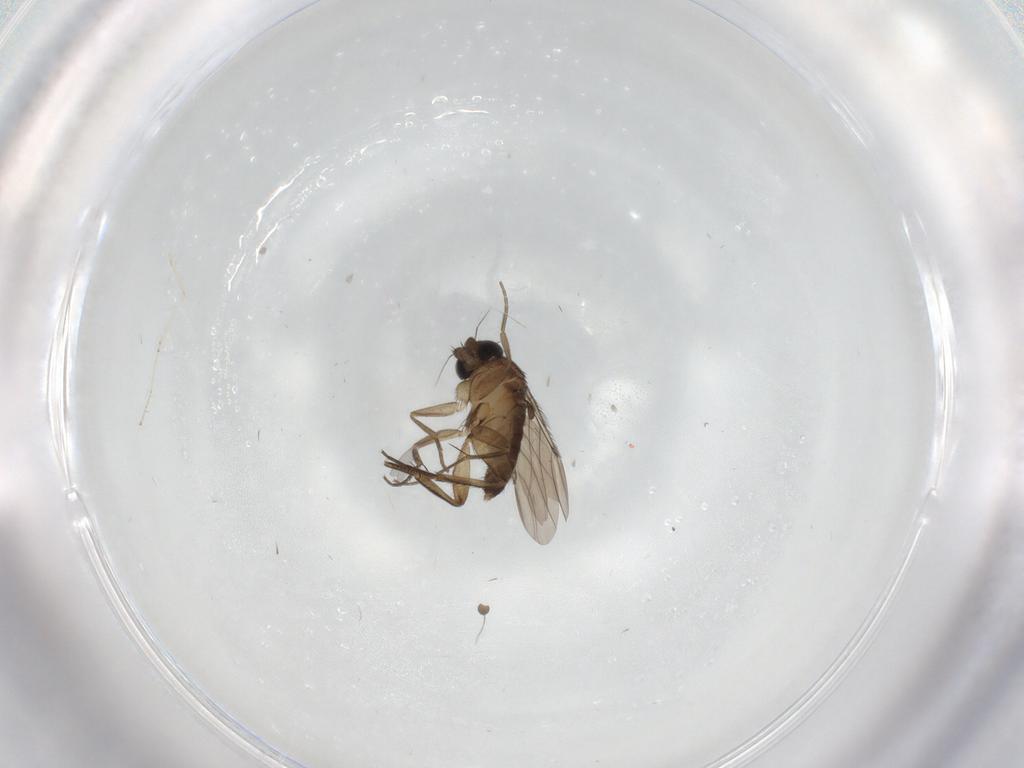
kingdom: Animalia
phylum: Arthropoda
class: Insecta
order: Diptera
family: Phoridae
